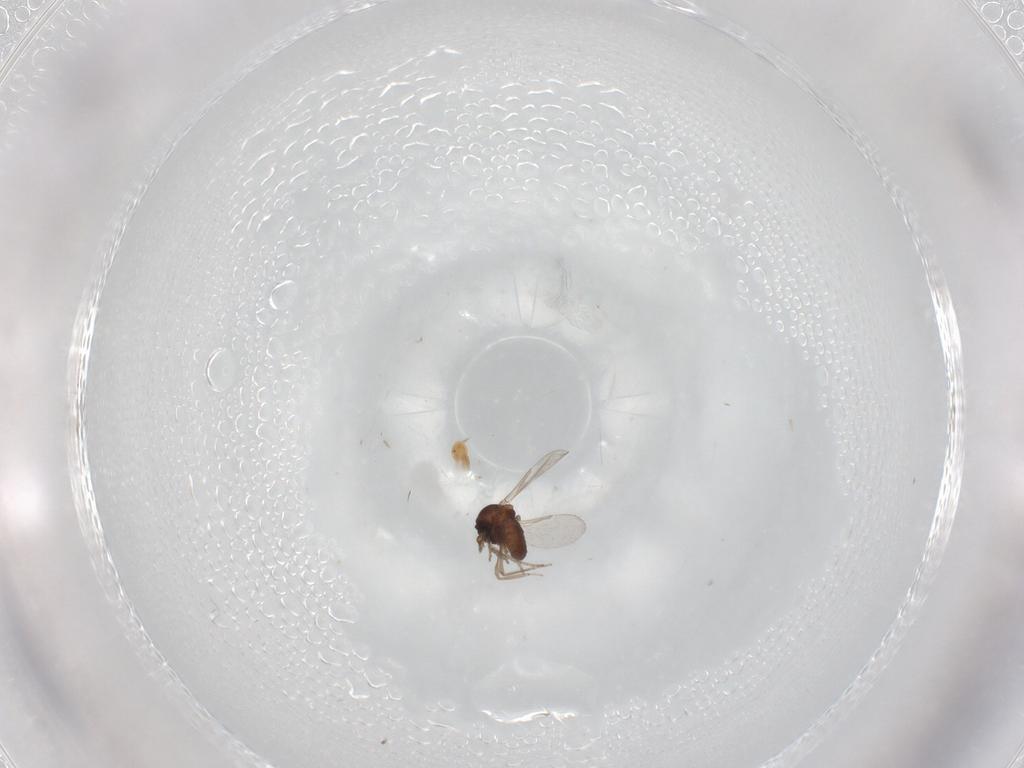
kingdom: Animalia
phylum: Arthropoda
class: Insecta
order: Diptera
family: Ceratopogonidae
